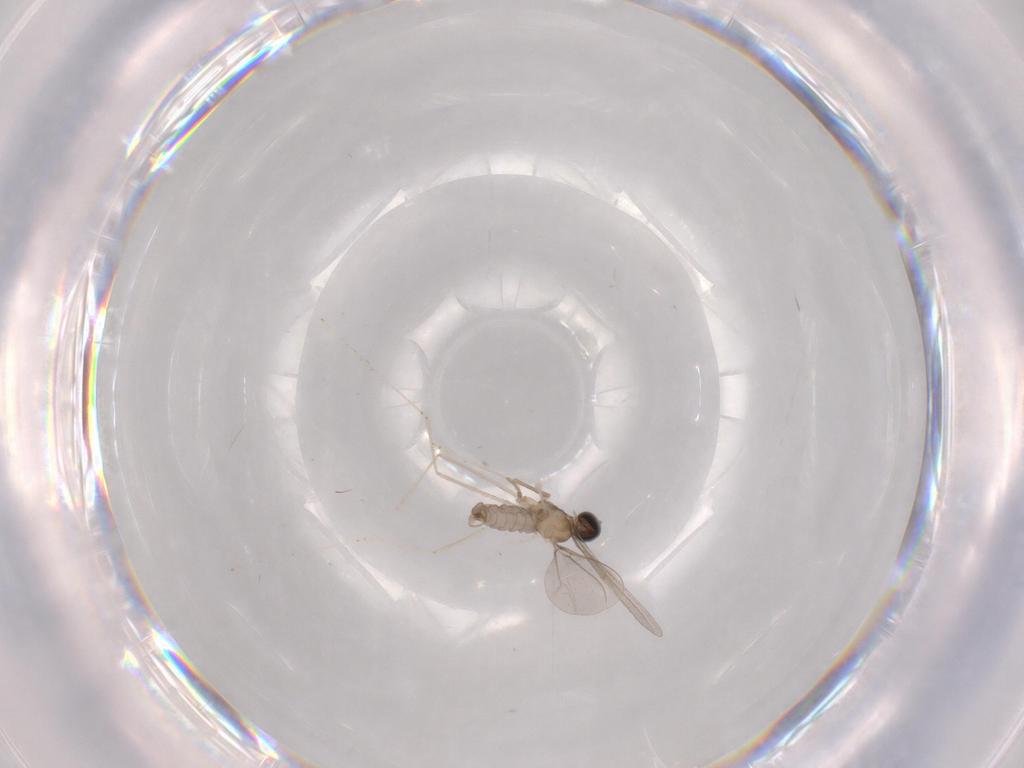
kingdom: Animalia
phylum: Arthropoda
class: Insecta
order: Diptera
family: Cecidomyiidae
